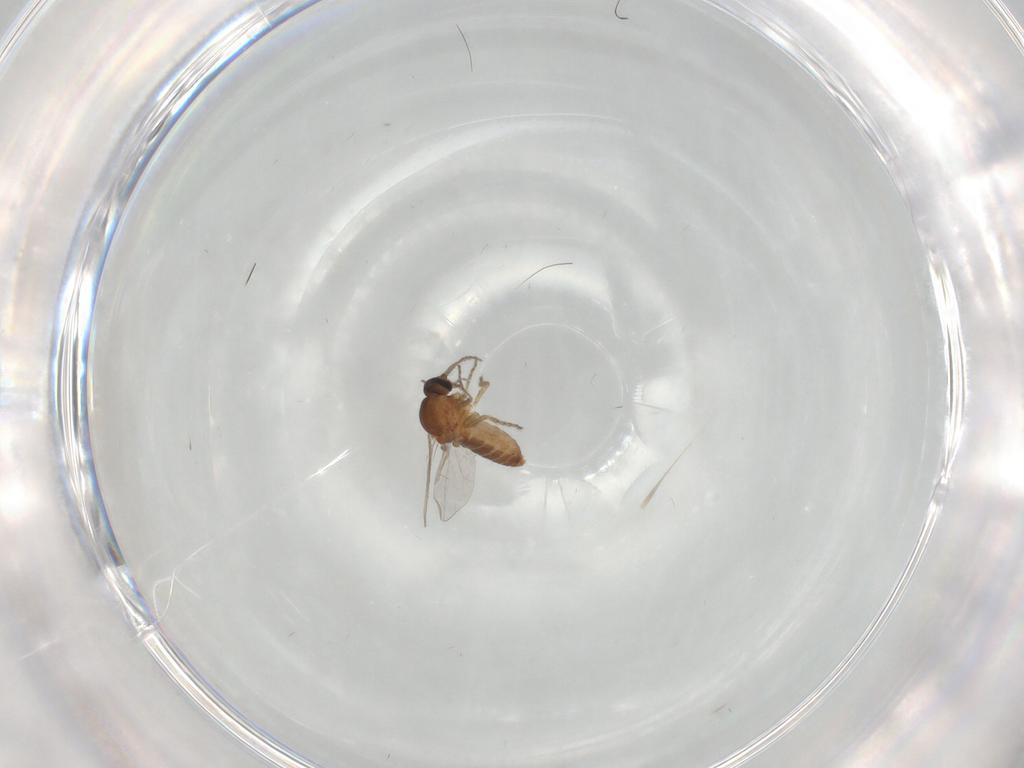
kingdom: Animalia
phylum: Arthropoda
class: Insecta
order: Diptera
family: Ceratopogonidae
